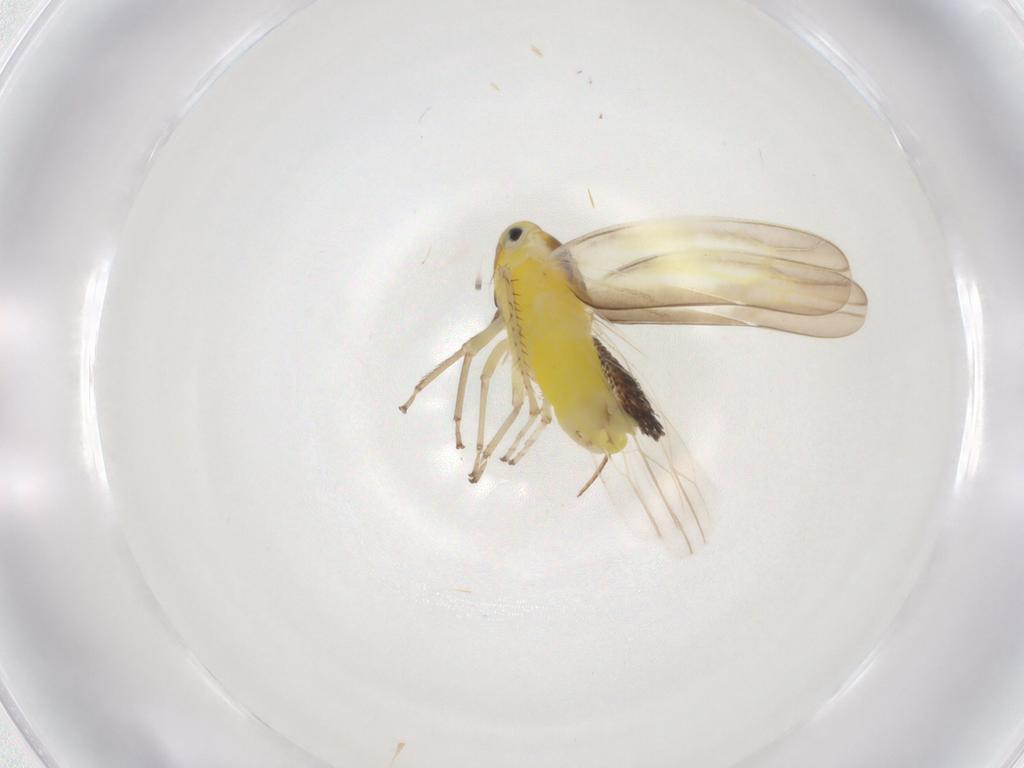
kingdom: Animalia
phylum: Arthropoda
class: Insecta
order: Hemiptera
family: Cicadellidae
